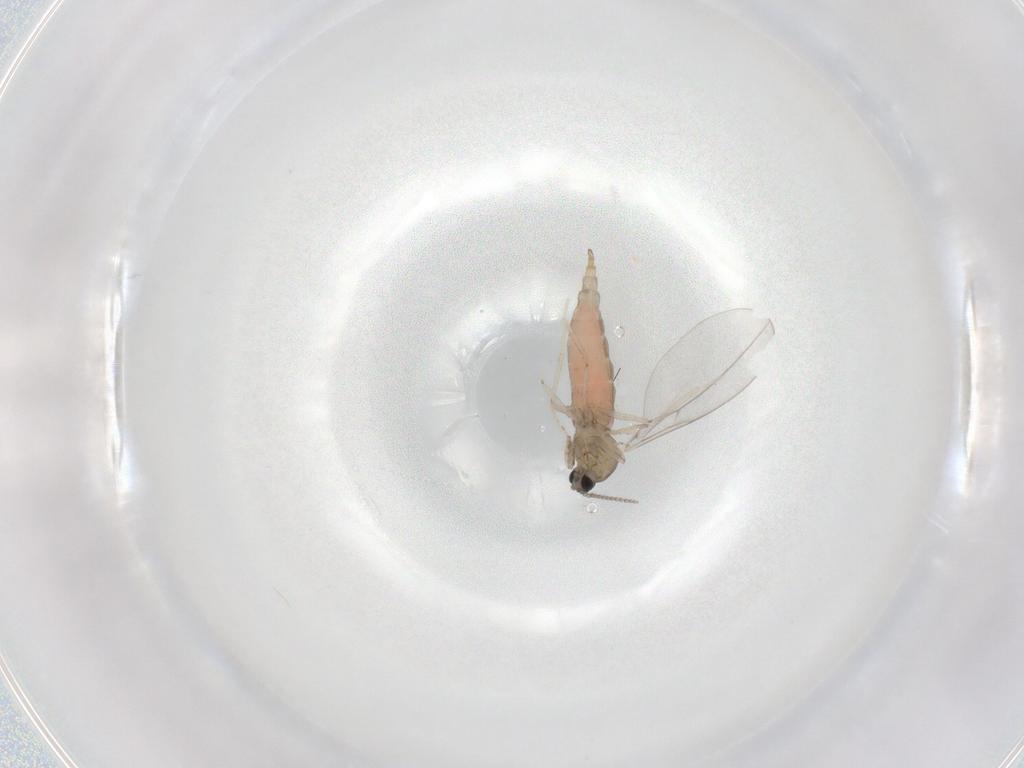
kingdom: Animalia
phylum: Arthropoda
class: Insecta
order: Diptera
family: Cecidomyiidae
